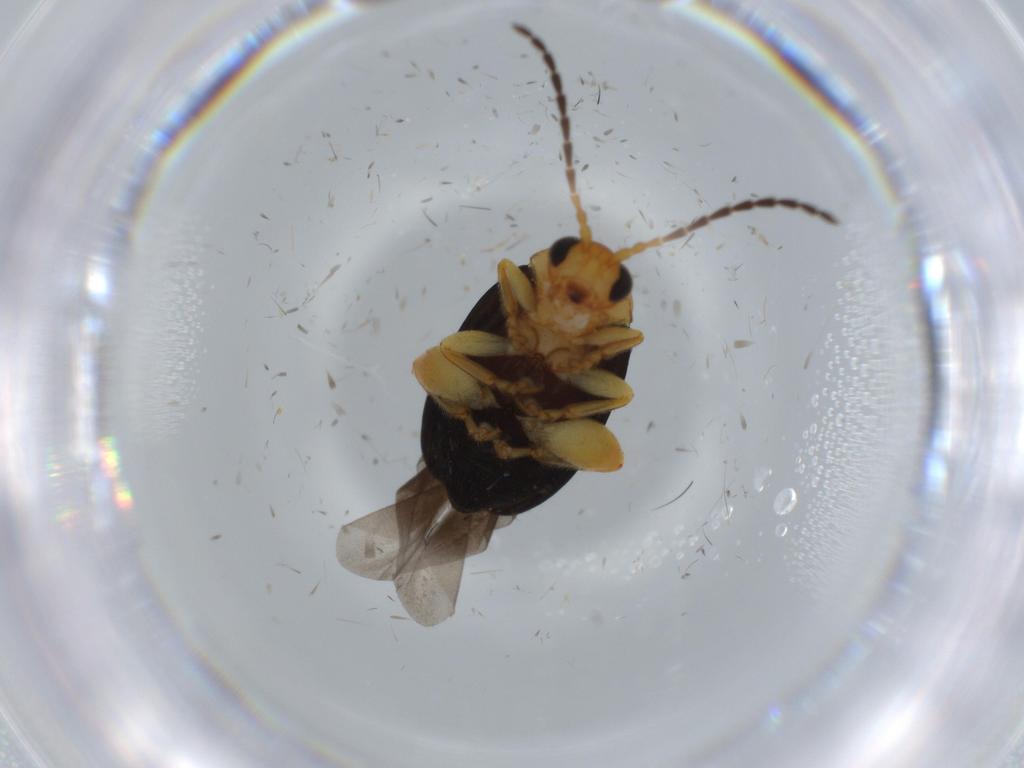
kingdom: Animalia
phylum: Arthropoda
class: Insecta
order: Coleoptera
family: Chrysomelidae
